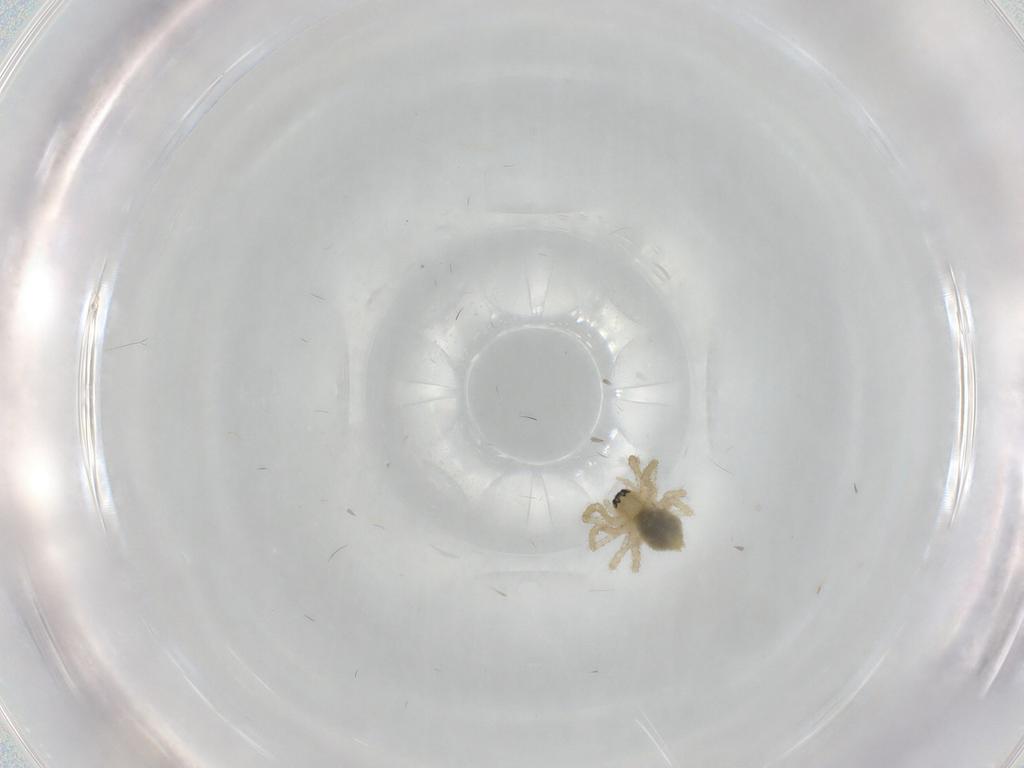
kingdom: Animalia
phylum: Arthropoda
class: Arachnida
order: Araneae
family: Linyphiidae
